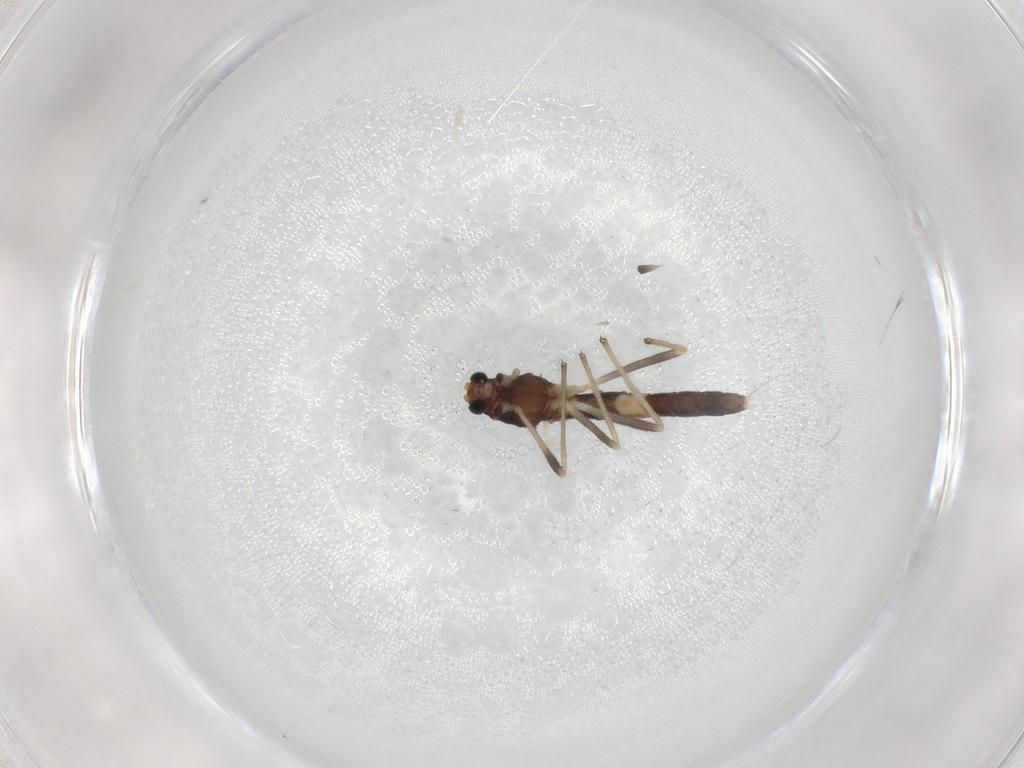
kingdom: Animalia
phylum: Arthropoda
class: Insecta
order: Diptera
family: Chironomidae
